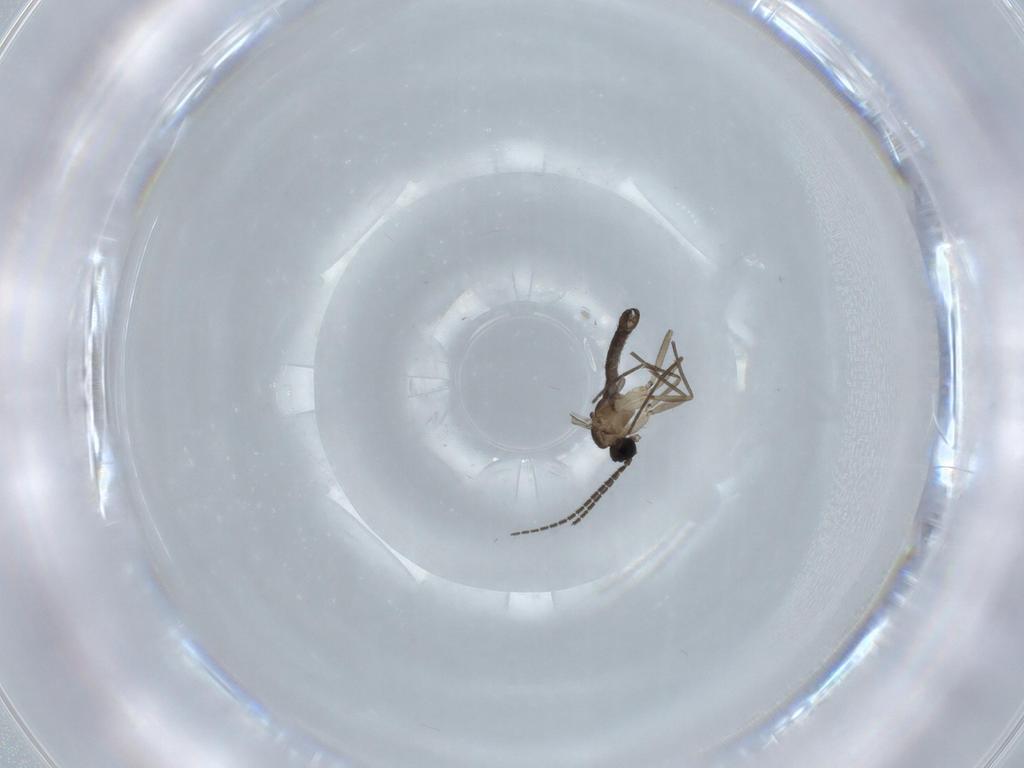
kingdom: Animalia
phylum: Arthropoda
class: Insecta
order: Diptera
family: Sciaridae
